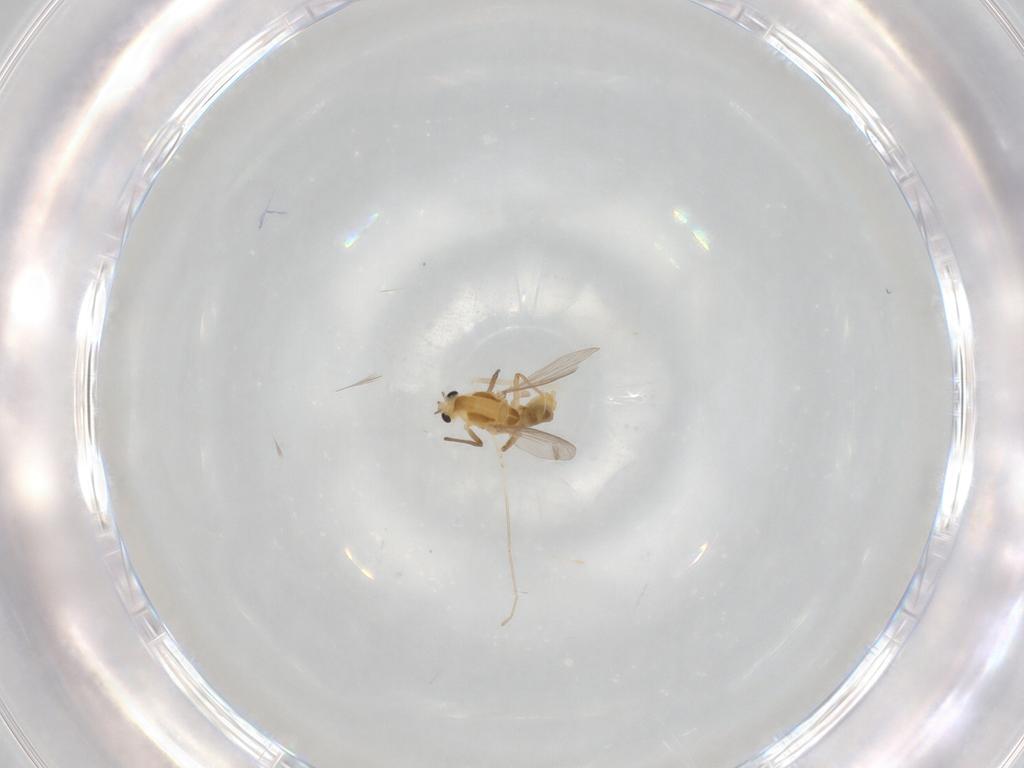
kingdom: Animalia
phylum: Arthropoda
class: Insecta
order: Diptera
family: Chironomidae
